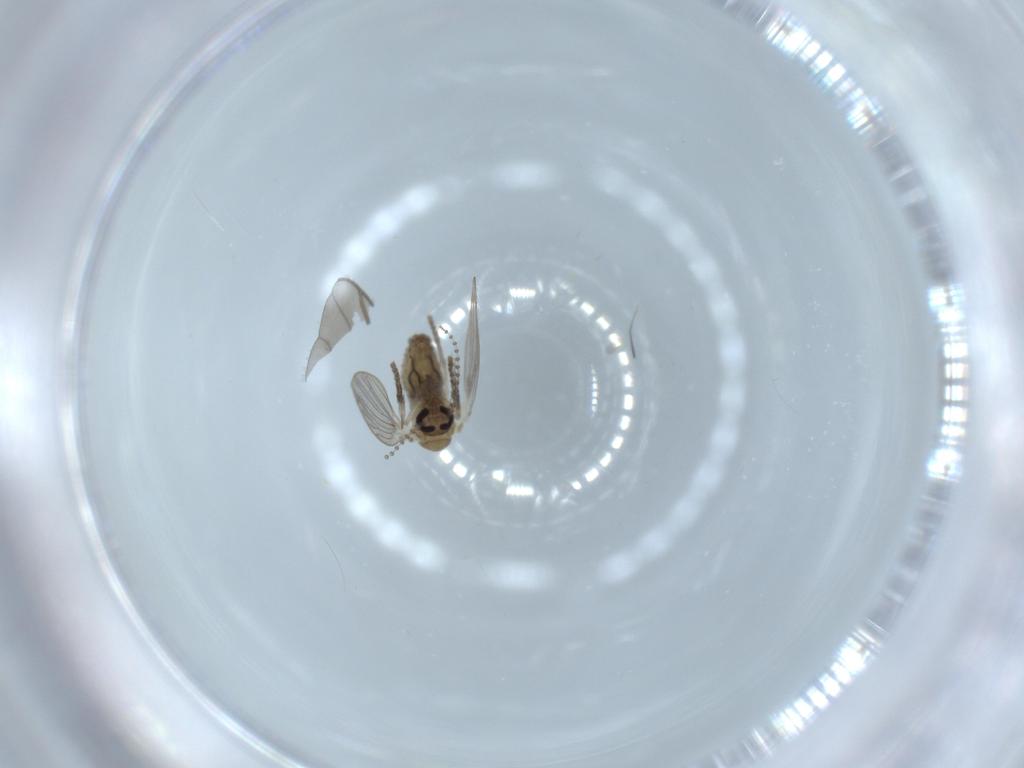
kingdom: Animalia
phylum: Arthropoda
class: Insecta
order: Diptera
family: Psychodidae
